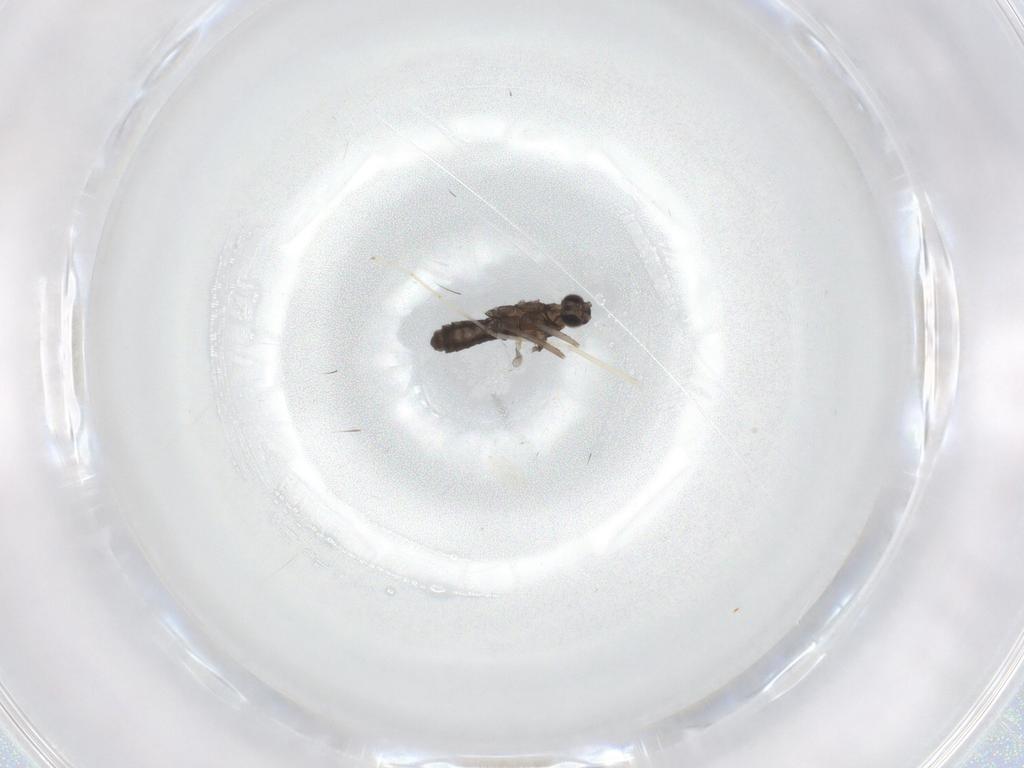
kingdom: Animalia
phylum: Arthropoda
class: Insecta
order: Diptera
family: Cecidomyiidae
